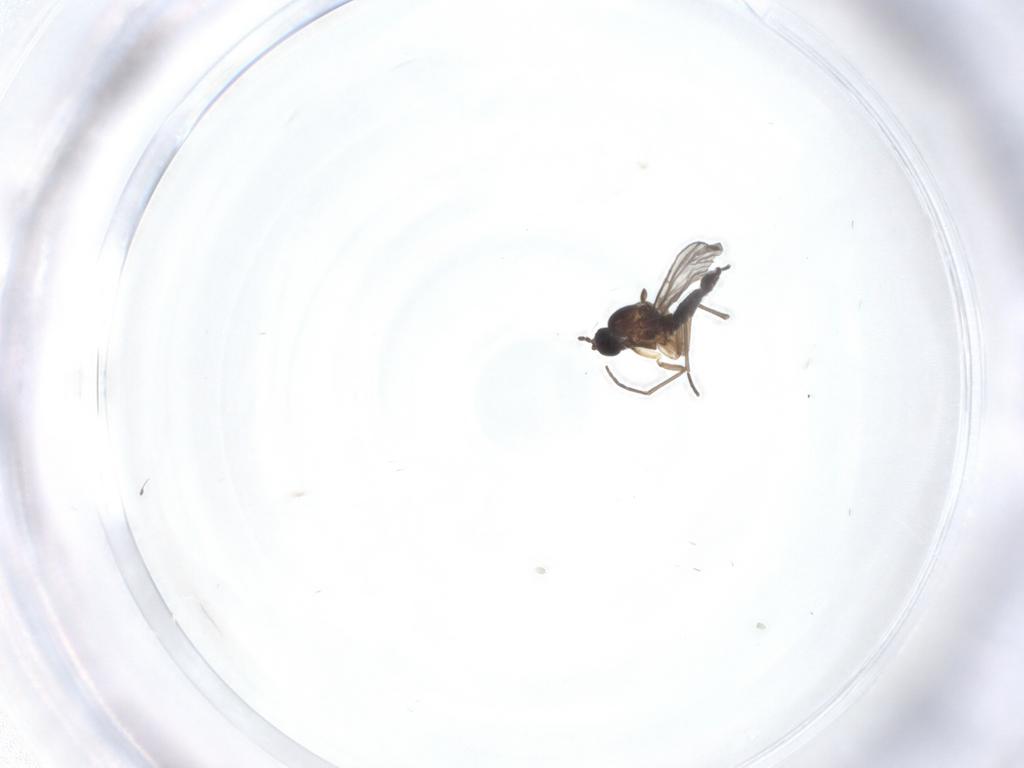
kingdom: Animalia
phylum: Arthropoda
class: Insecta
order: Diptera
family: Sciaridae
